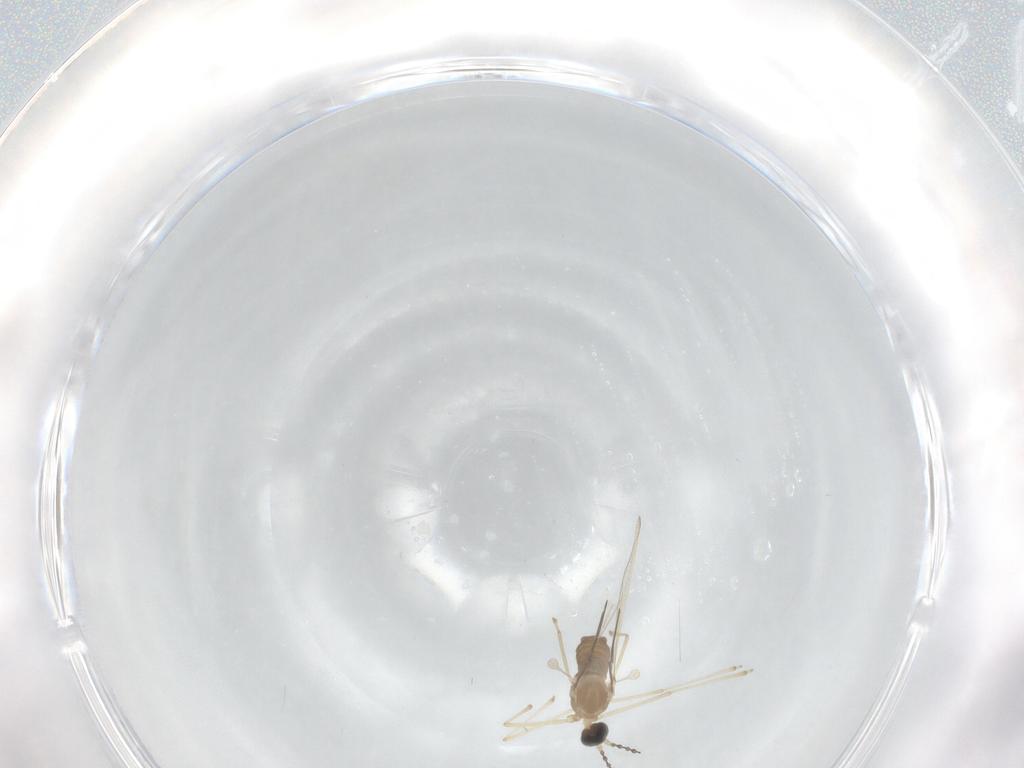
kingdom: Animalia
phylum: Arthropoda
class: Insecta
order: Diptera
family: Cecidomyiidae
